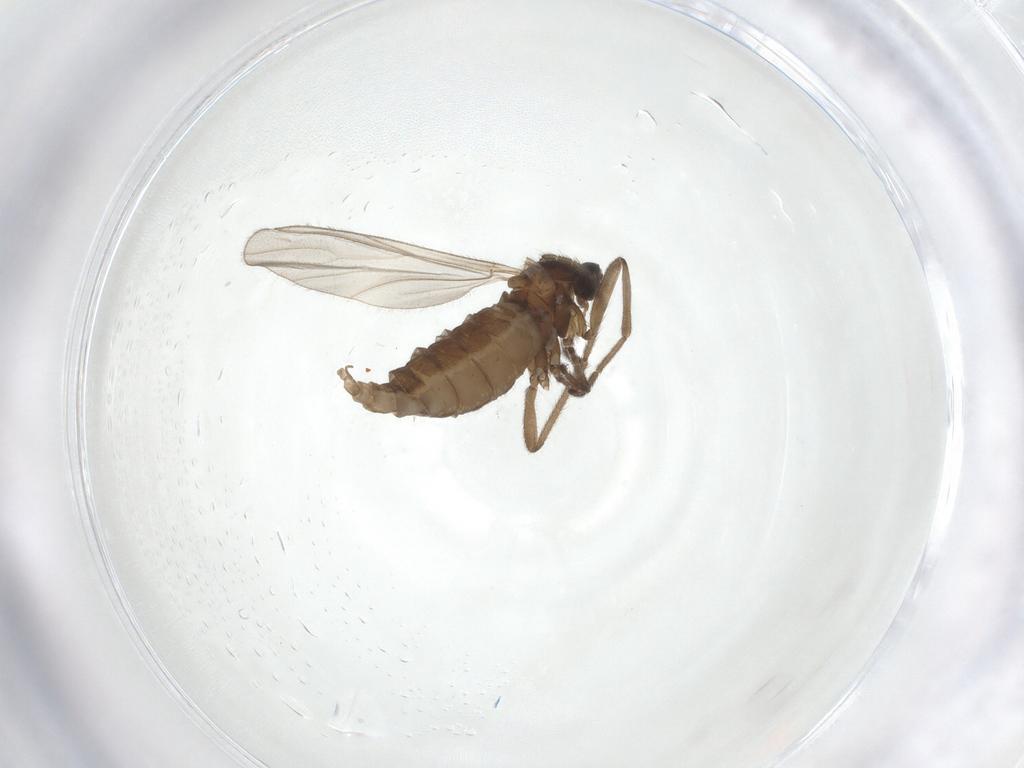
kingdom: Animalia
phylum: Arthropoda
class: Insecta
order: Diptera
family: Cecidomyiidae
